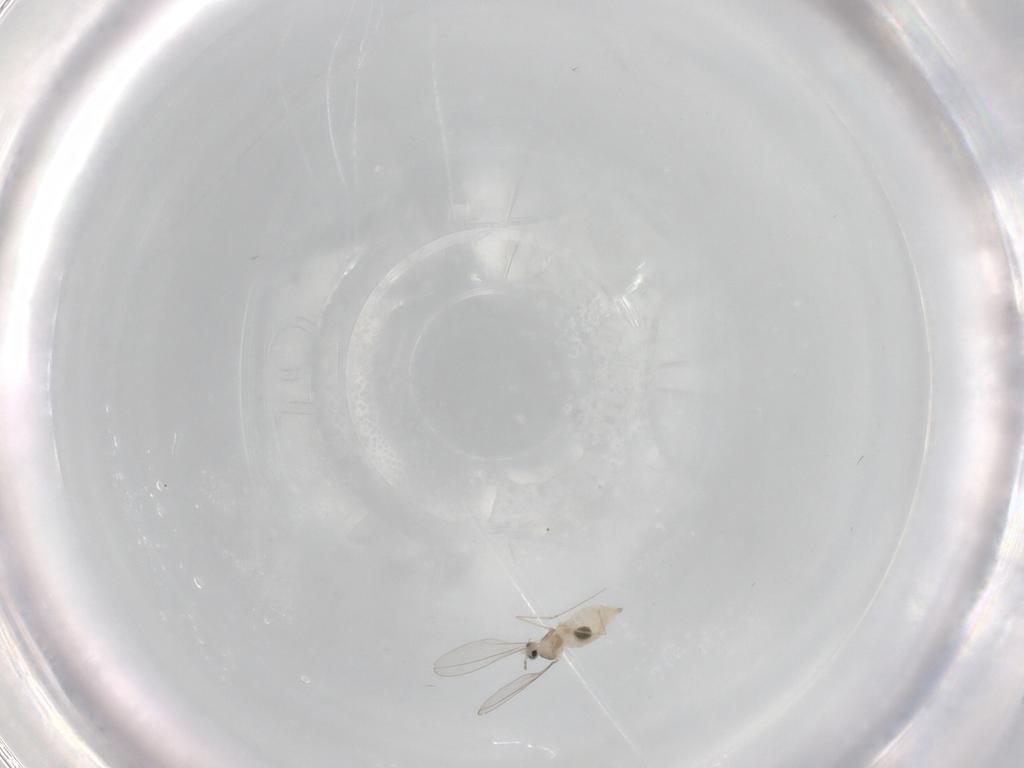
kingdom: Animalia
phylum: Arthropoda
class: Insecta
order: Diptera
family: Cecidomyiidae
